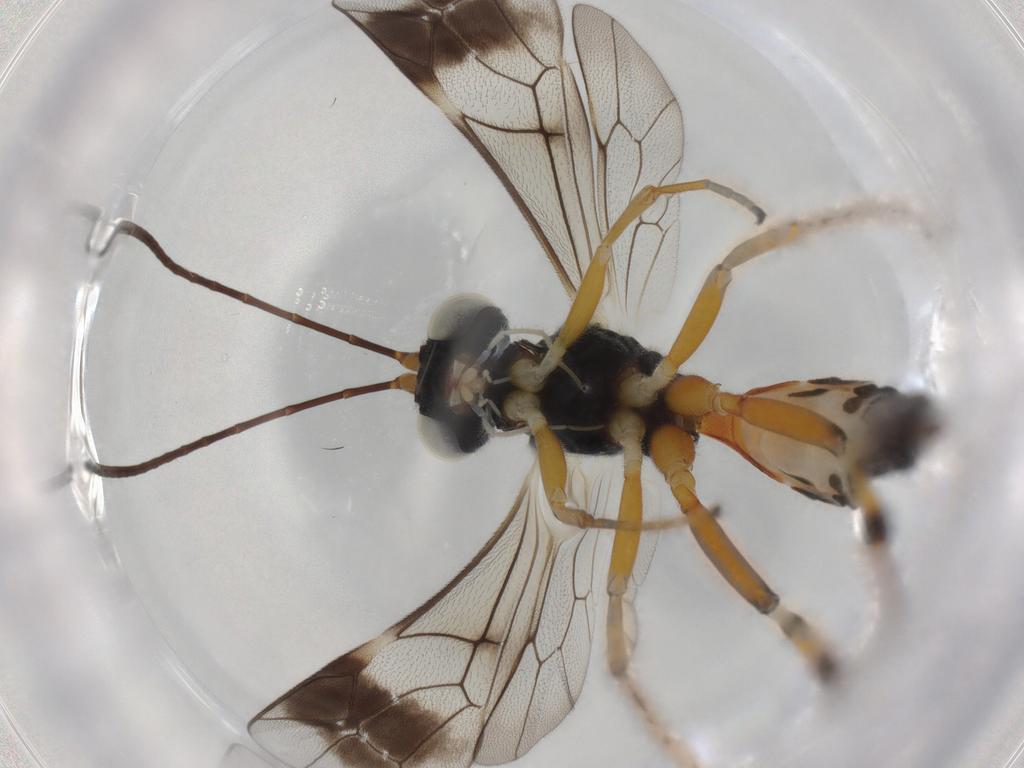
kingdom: Animalia
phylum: Arthropoda
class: Insecta
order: Hymenoptera
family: Ichneumonidae
